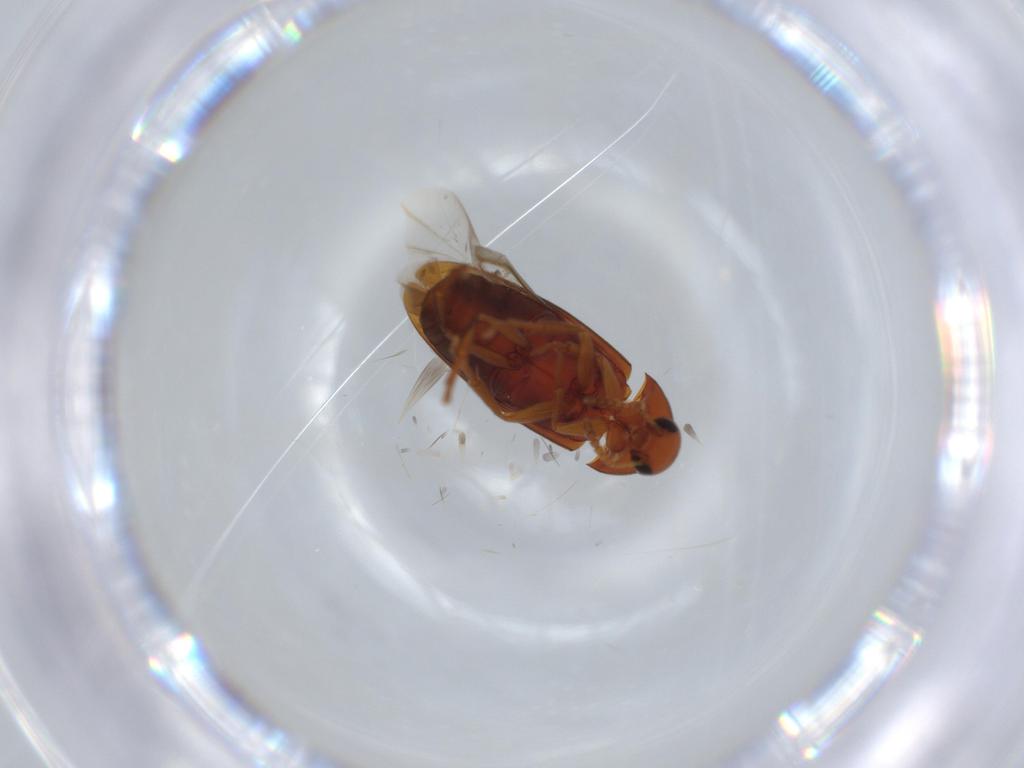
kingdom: Animalia
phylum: Arthropoda
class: Insecta
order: Coleoptera
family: Scraptiidae
